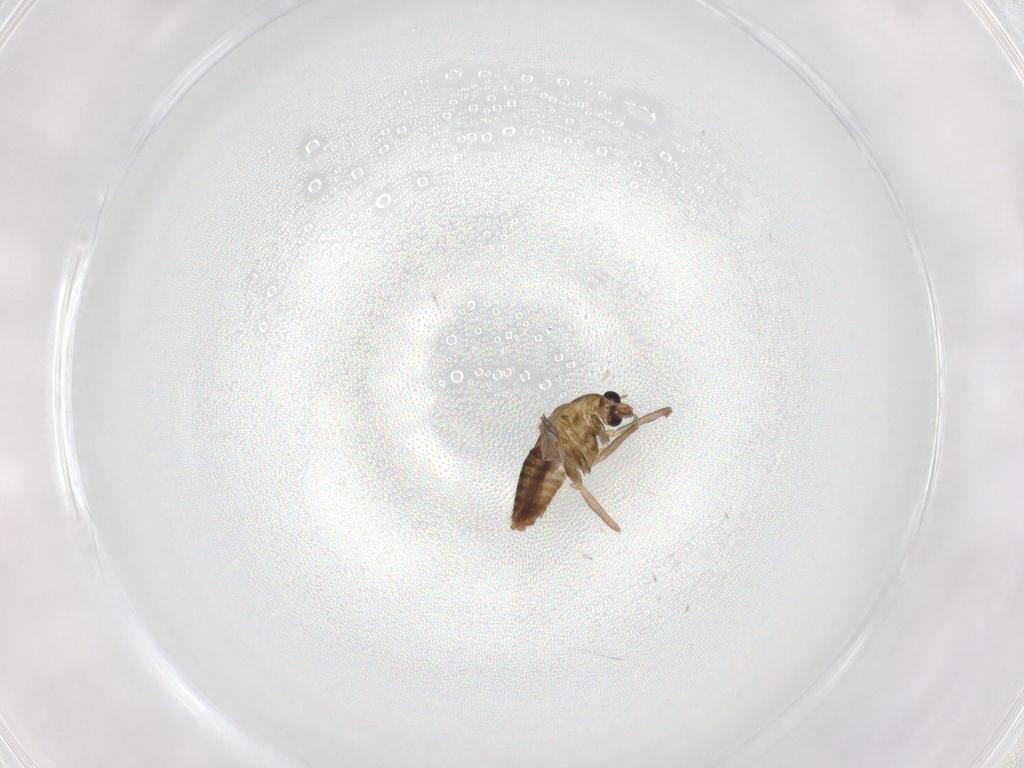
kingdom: Animalia
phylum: Arthropoda
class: Insecta
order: Diptera
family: Chironomidae
